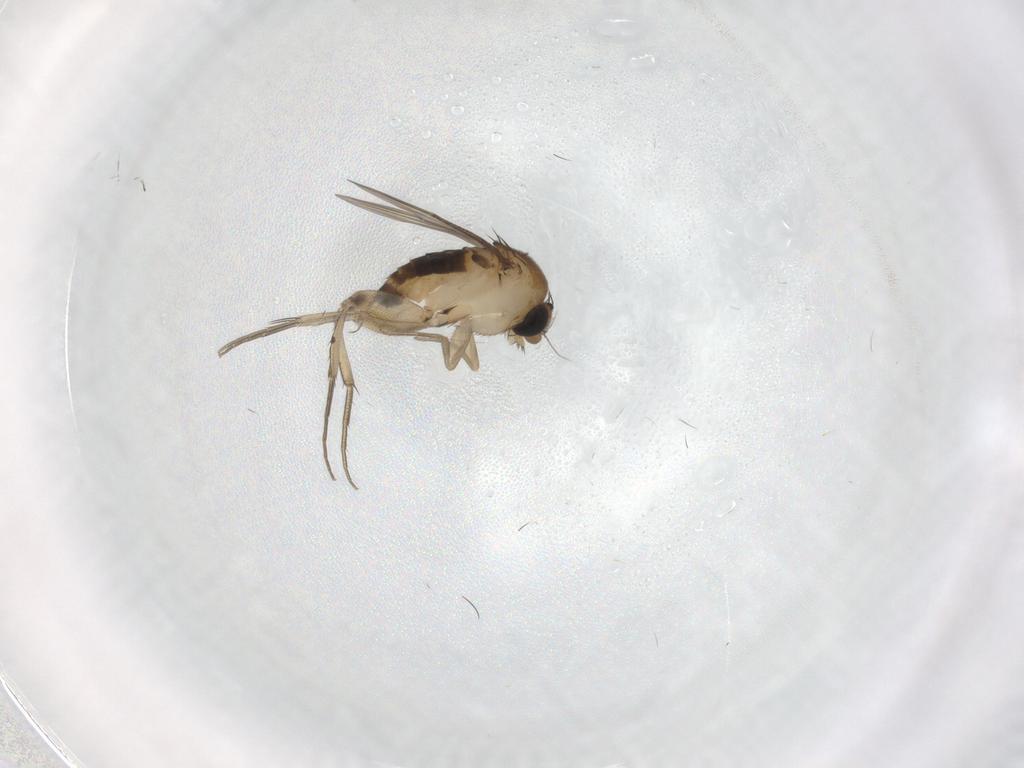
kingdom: Animalia
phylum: Arthropoda
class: Insecta
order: Diptera
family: Phoridae
